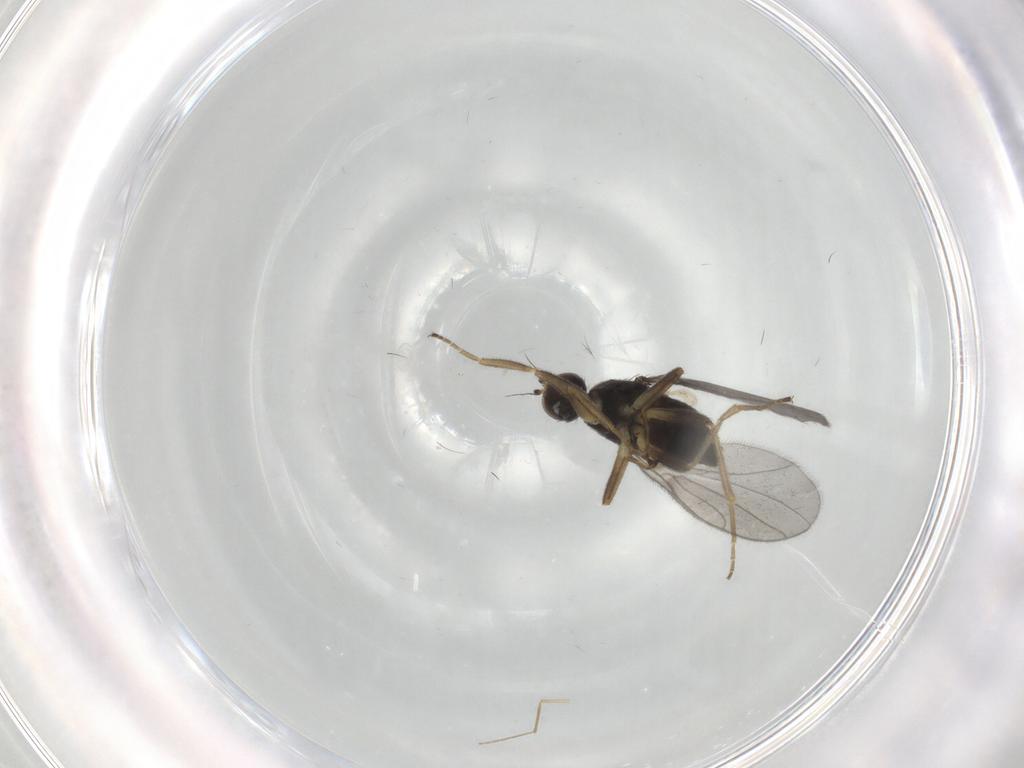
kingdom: Animalia
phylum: Arthropoda
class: Insecta
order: Diptera
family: Hybotidae
